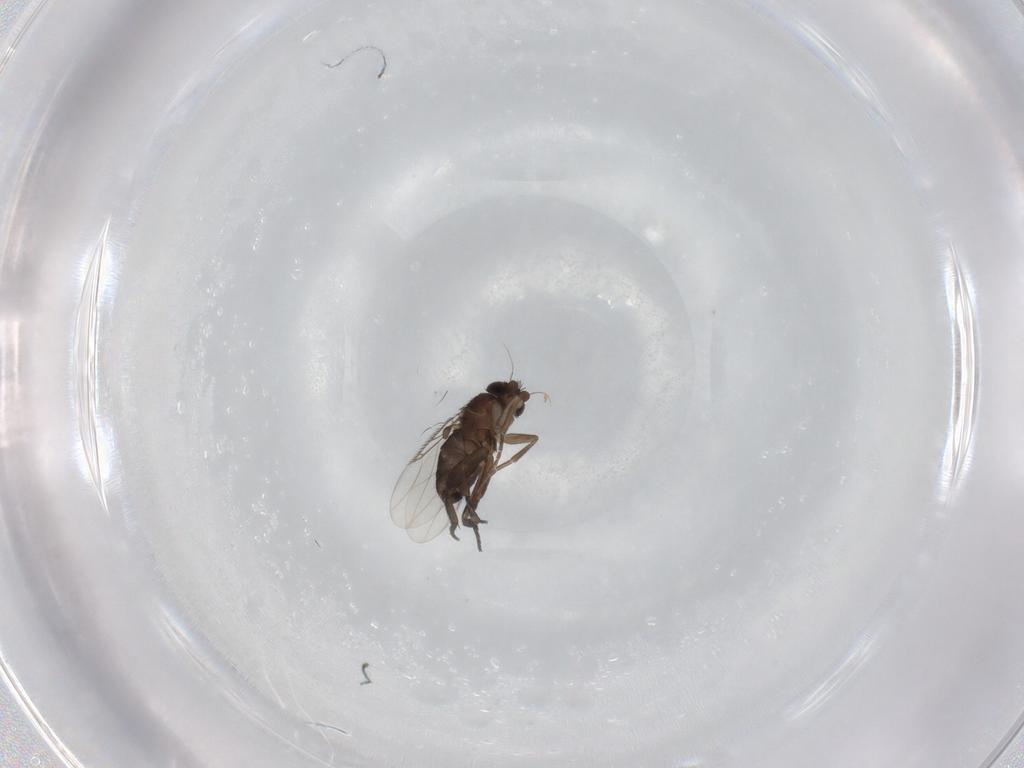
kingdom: Animalia
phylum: Arthropoda
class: Insecta
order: Diptera
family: Phoridae
